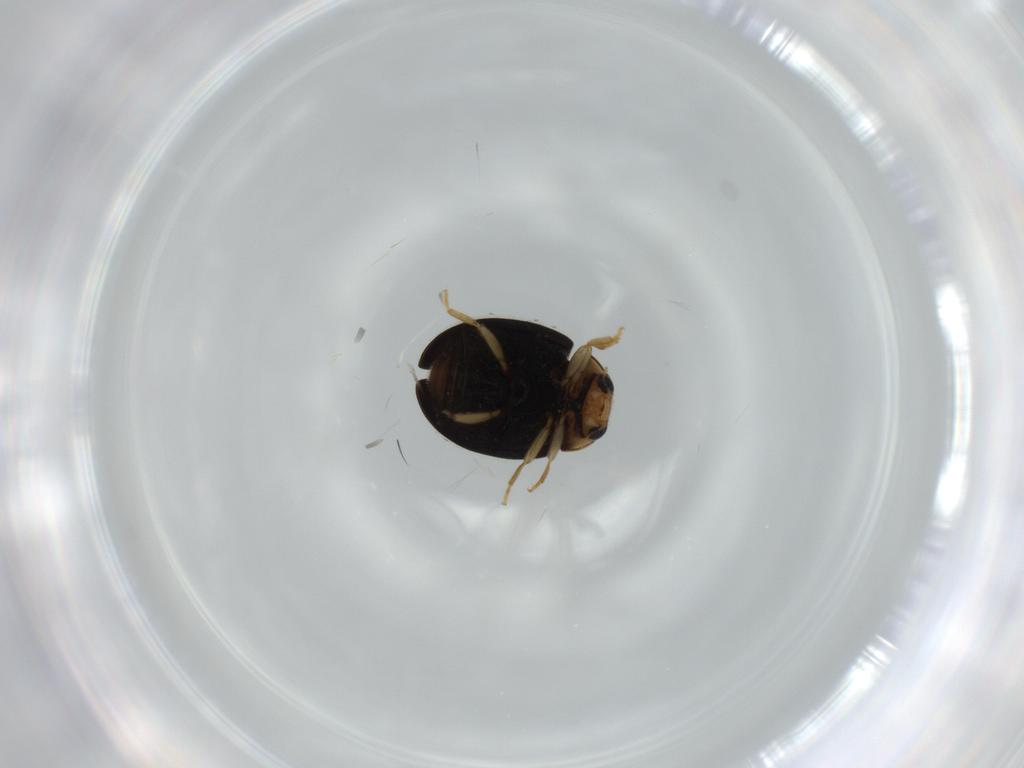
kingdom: Animalia
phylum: Arthropoda
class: Insecta
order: Coleoptera
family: Coccinellidae
